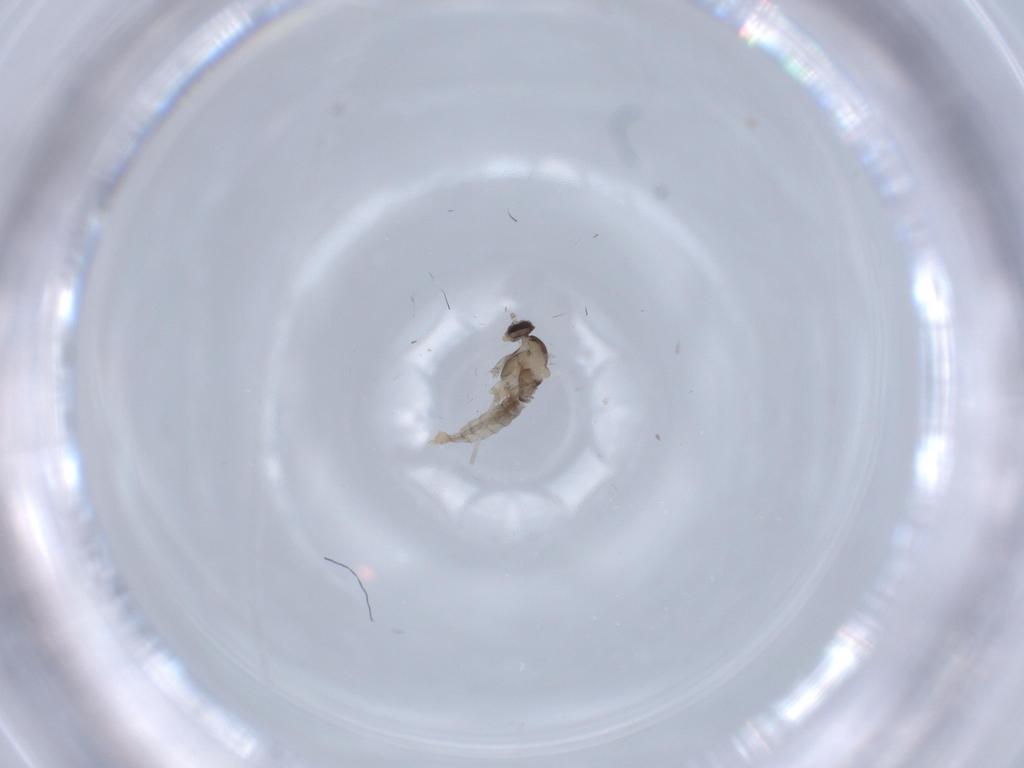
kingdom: Animalia
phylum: Arthropoda
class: Insecta
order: Diptera
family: Cecidomyiidae
